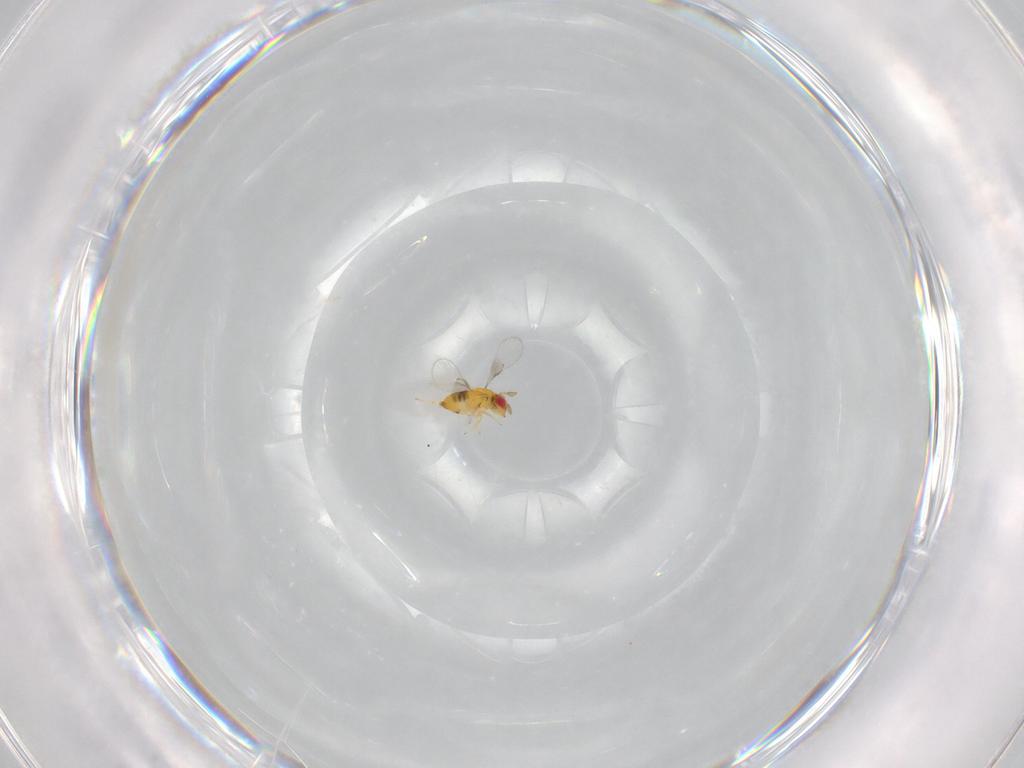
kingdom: Animalia
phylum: Arthropoda
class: Insecta
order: Hymenoptera
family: Trichogrammatidae
